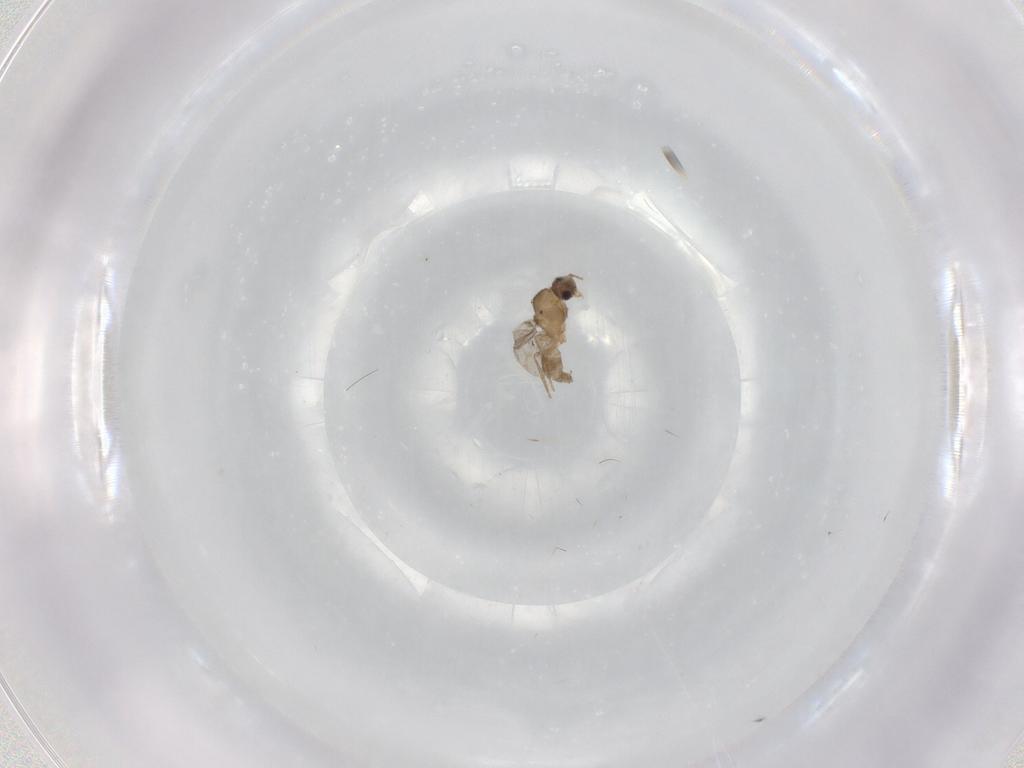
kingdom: Animalia
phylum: Arthropoda
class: Insecta
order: Hymenoptera
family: Formicidae
